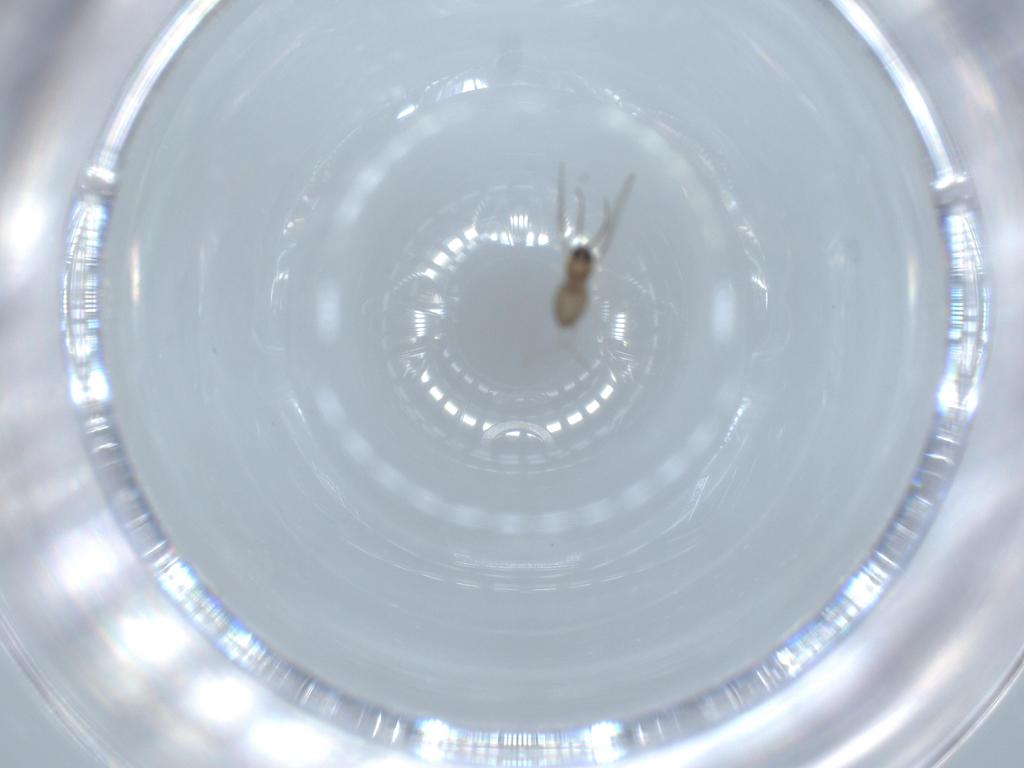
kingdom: Animalia
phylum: Arthropoda
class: Insecta
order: Diptera
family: Cecidomyiidae
